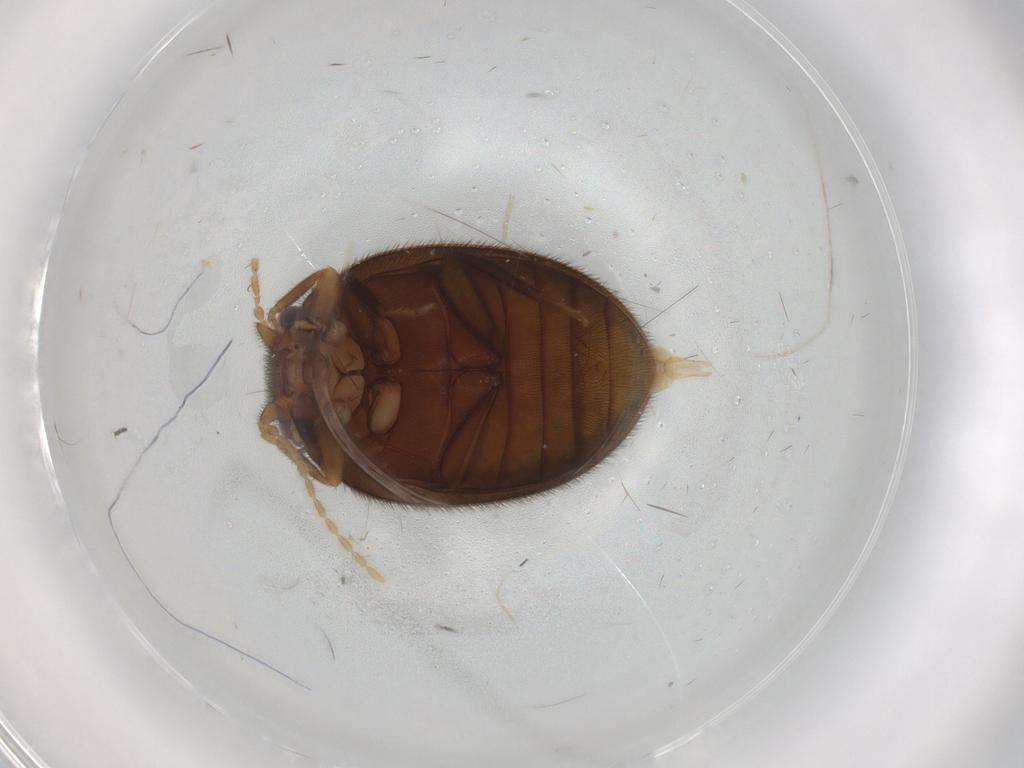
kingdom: Animalia
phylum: Arthropoda
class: Insecta
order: Coleoptera
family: Scirtidae
